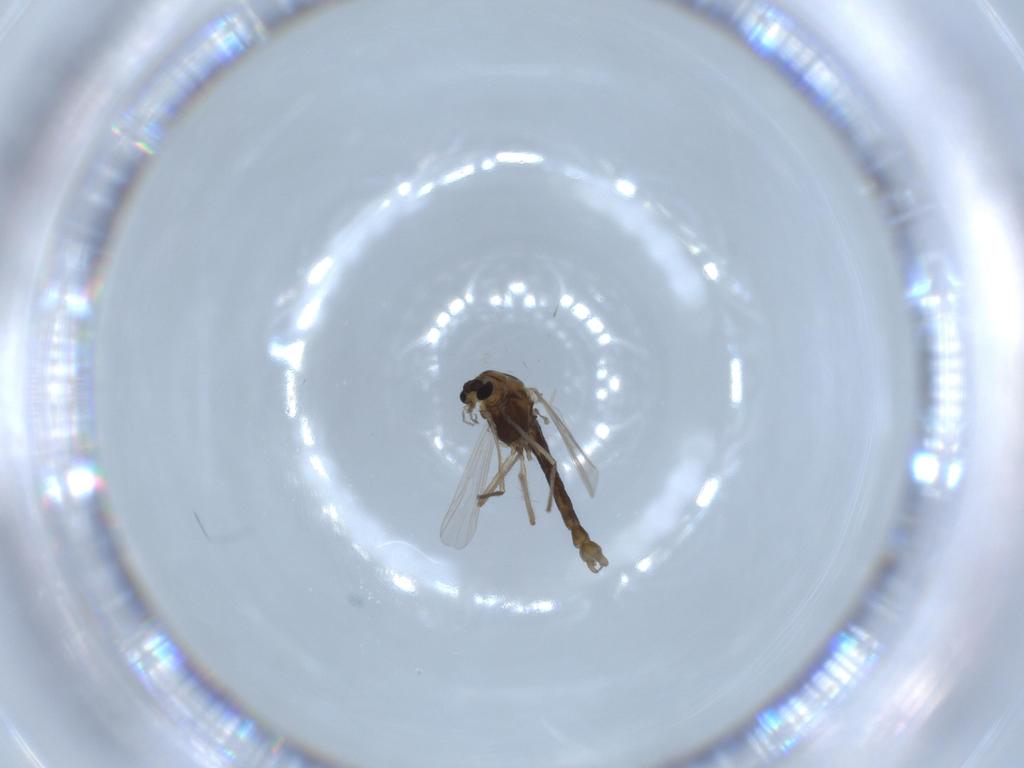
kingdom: Animalia
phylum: Arthropoda
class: Insecta
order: Diptera
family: Chironomidae
